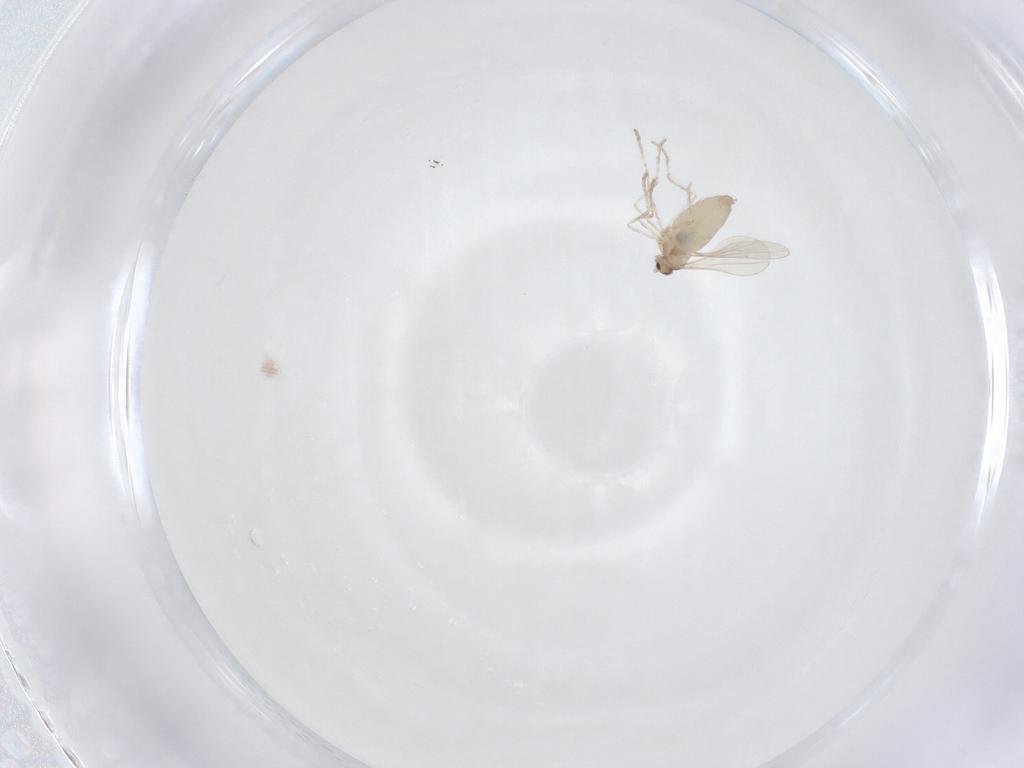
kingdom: Animalia
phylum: Arthropoda
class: Insecta
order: Diptera
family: Cecidomyiidae
